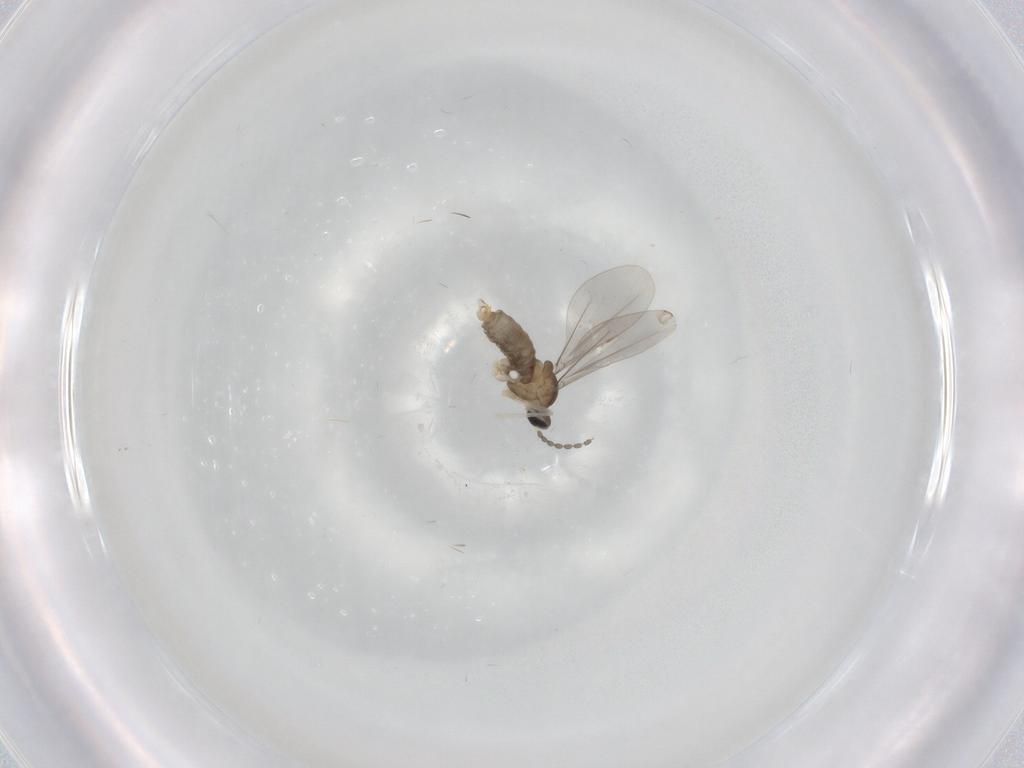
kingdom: Animalia
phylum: Arthropoda
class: Insecta
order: Diptera
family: Cecidomyiidae
